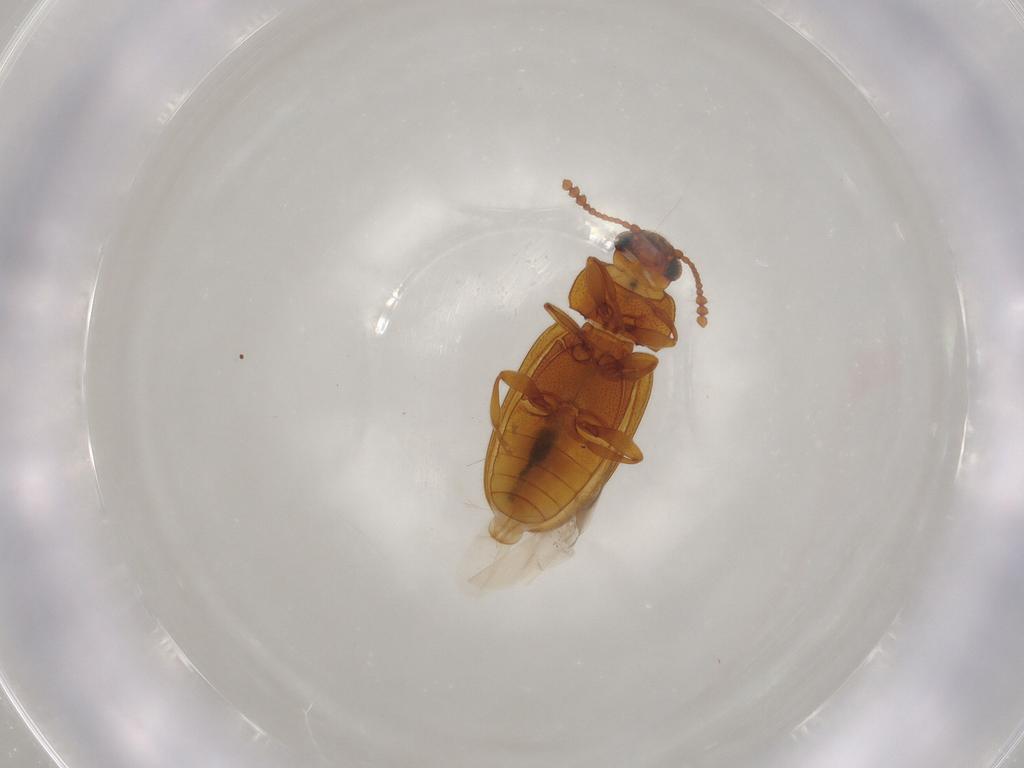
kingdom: Animalia
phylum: Arthropoda
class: Insecta
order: Coleoptera
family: Erotylidae
